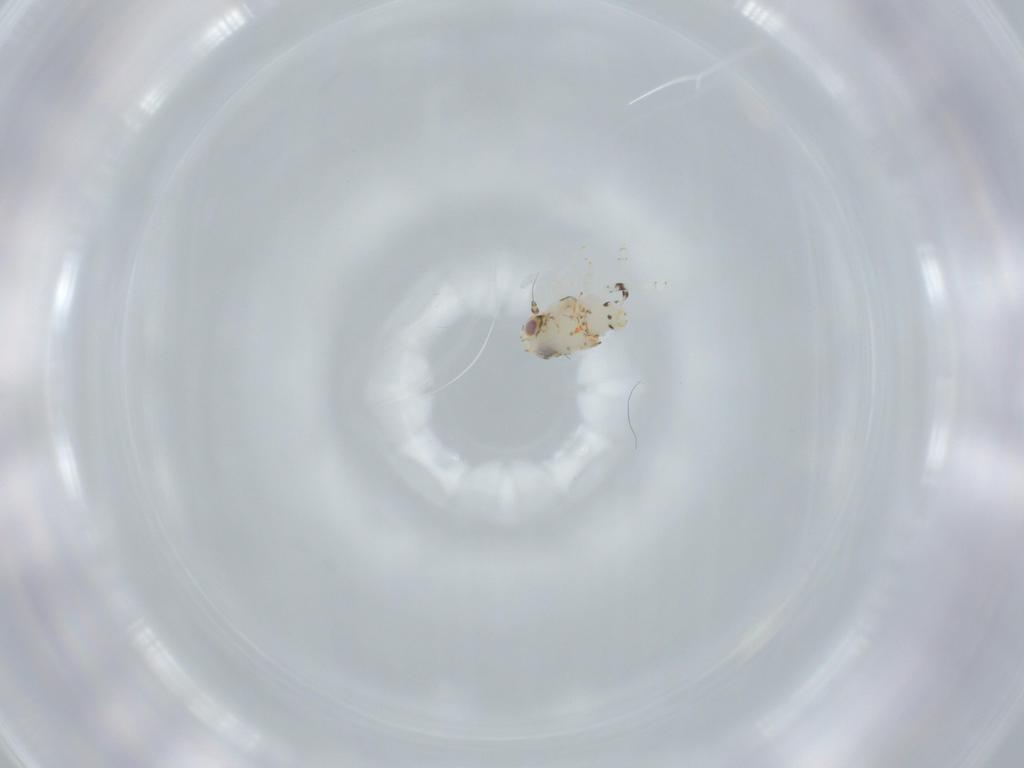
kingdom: Animalia
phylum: Arthropoda
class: Insecta
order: Hemiptera
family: Nogodinidae
